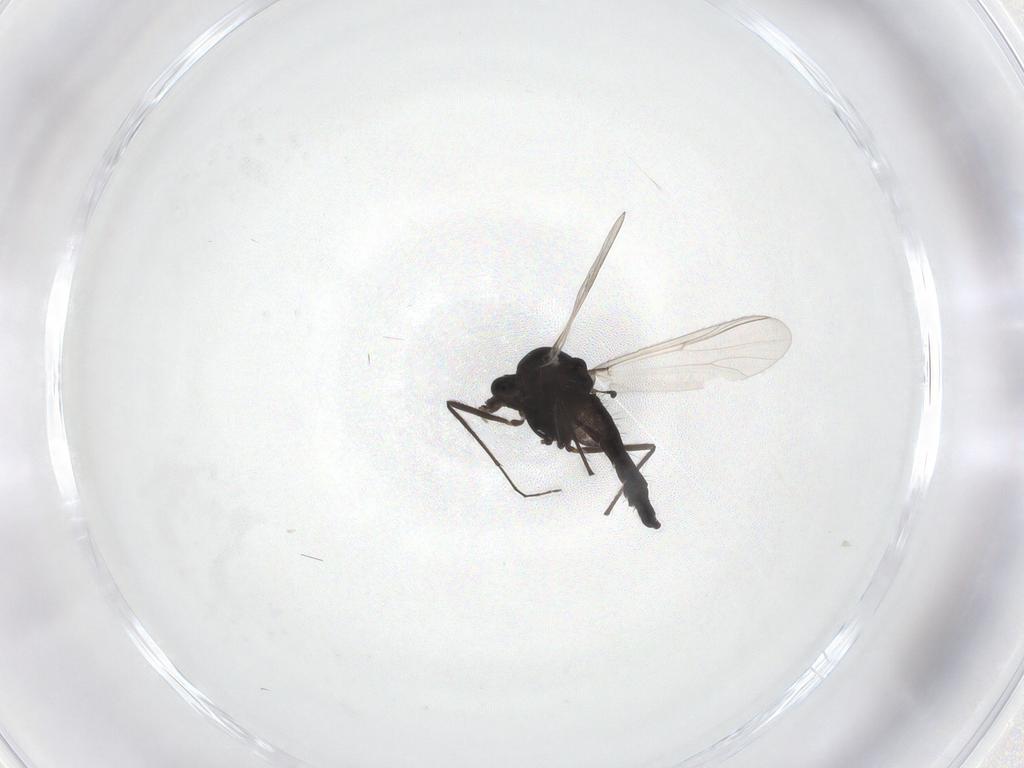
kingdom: Animalia
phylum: Arthropoda
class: Insecta
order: Diptera
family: Chironomidae
